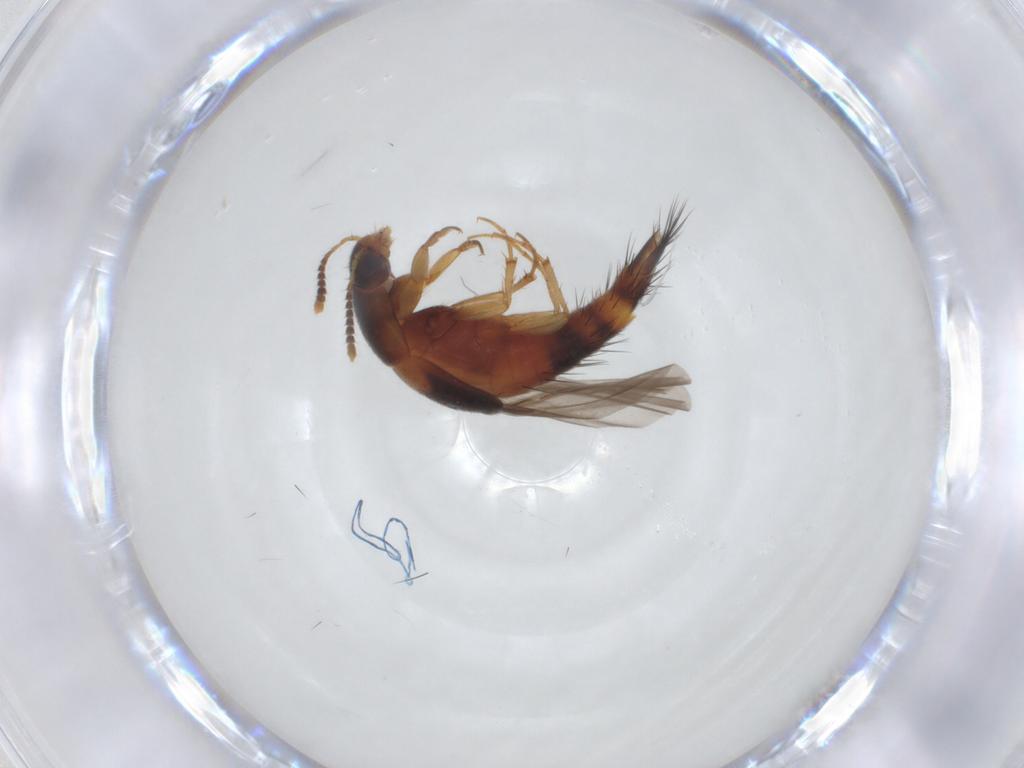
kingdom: Animalia
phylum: Arthropoda
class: Insecta
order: Coleoptera
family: Staphylinidae
